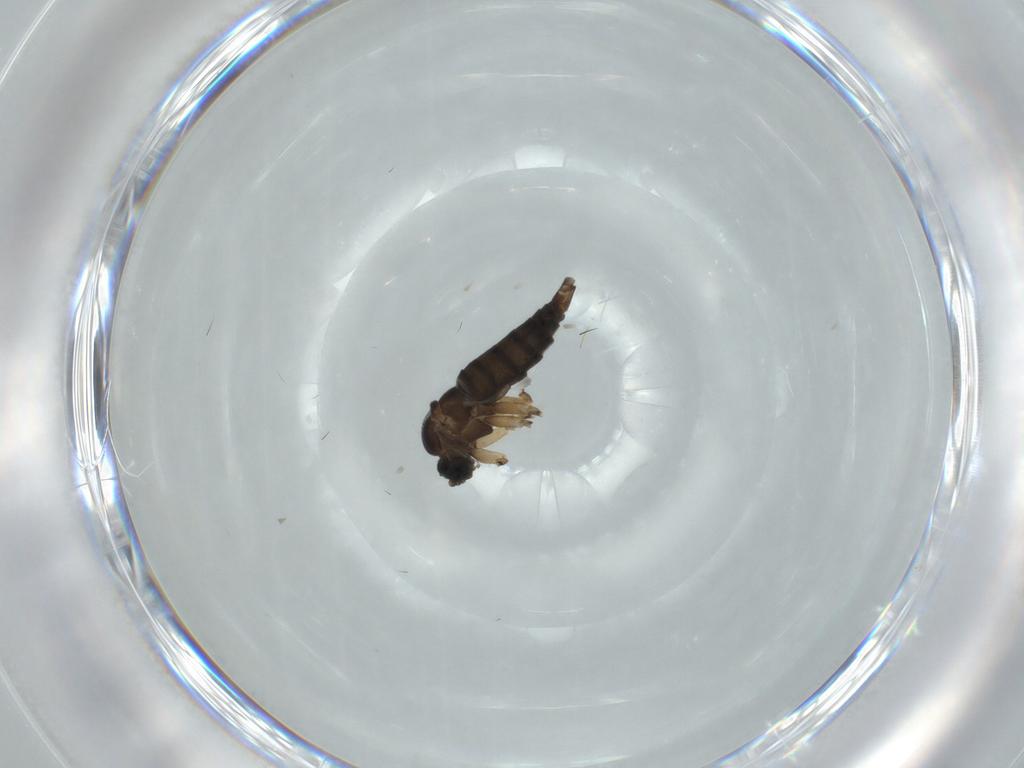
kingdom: Animalia
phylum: Arthropoda
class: Insecta
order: Diptera
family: Sciaridae
